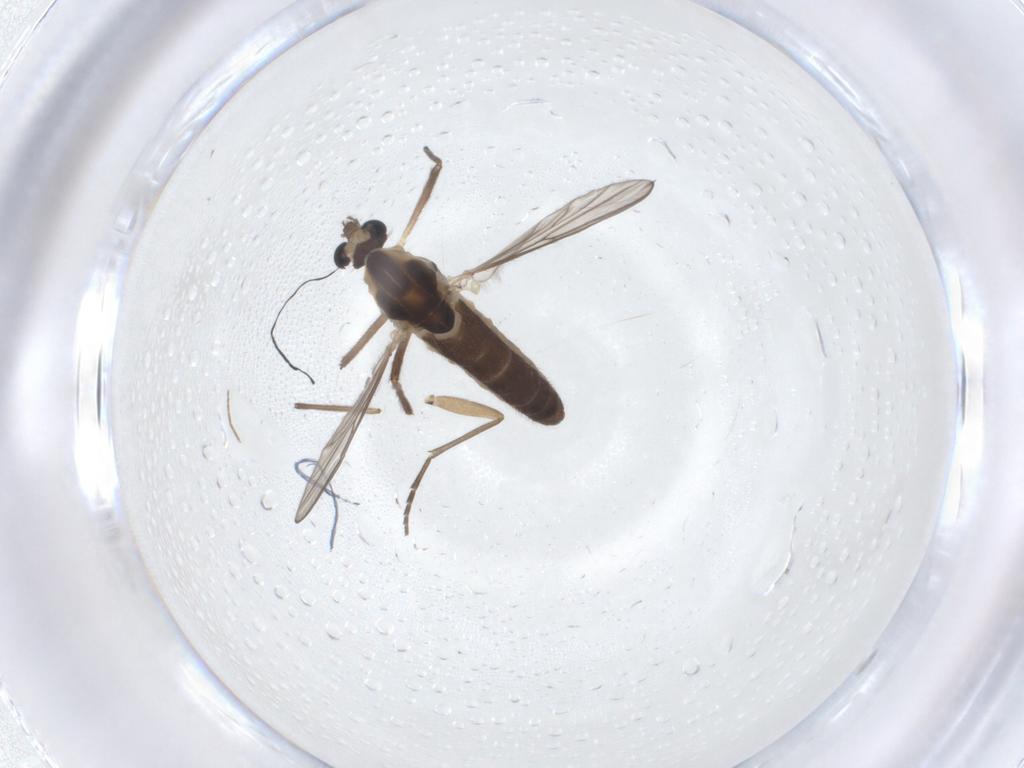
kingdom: Animalia
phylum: Arthropoda
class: Insecta
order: Diptera
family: Chironomidae
